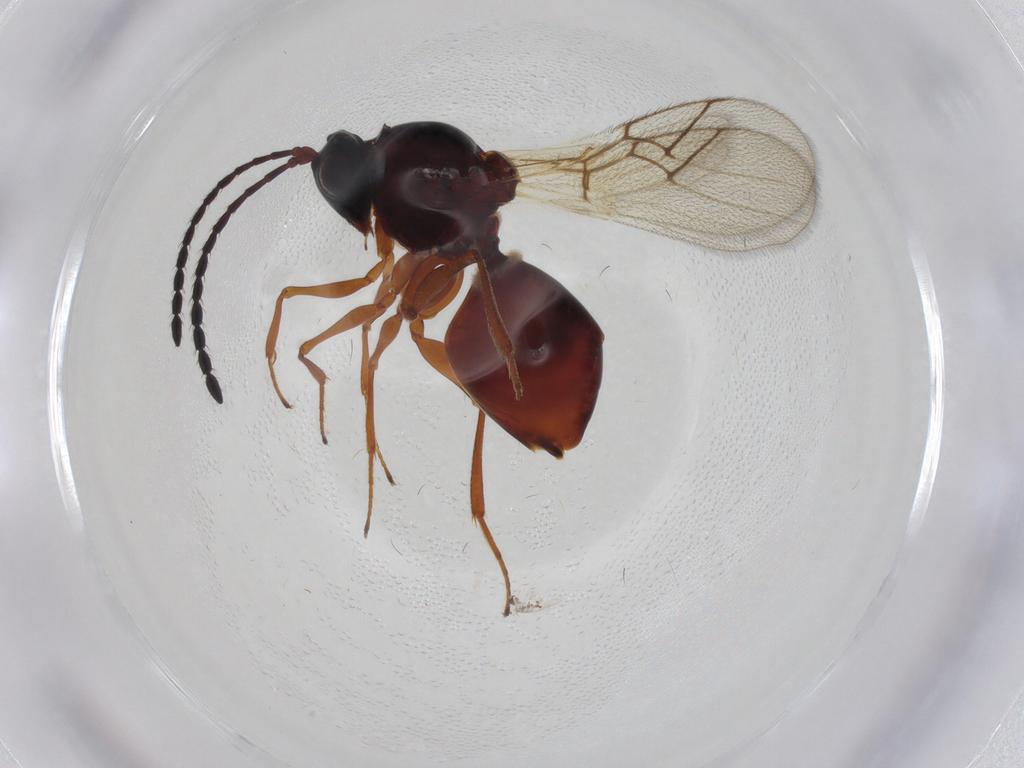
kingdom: Animalia
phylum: Arthropoda
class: Insecta
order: Hymenoptera
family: Figitidae
